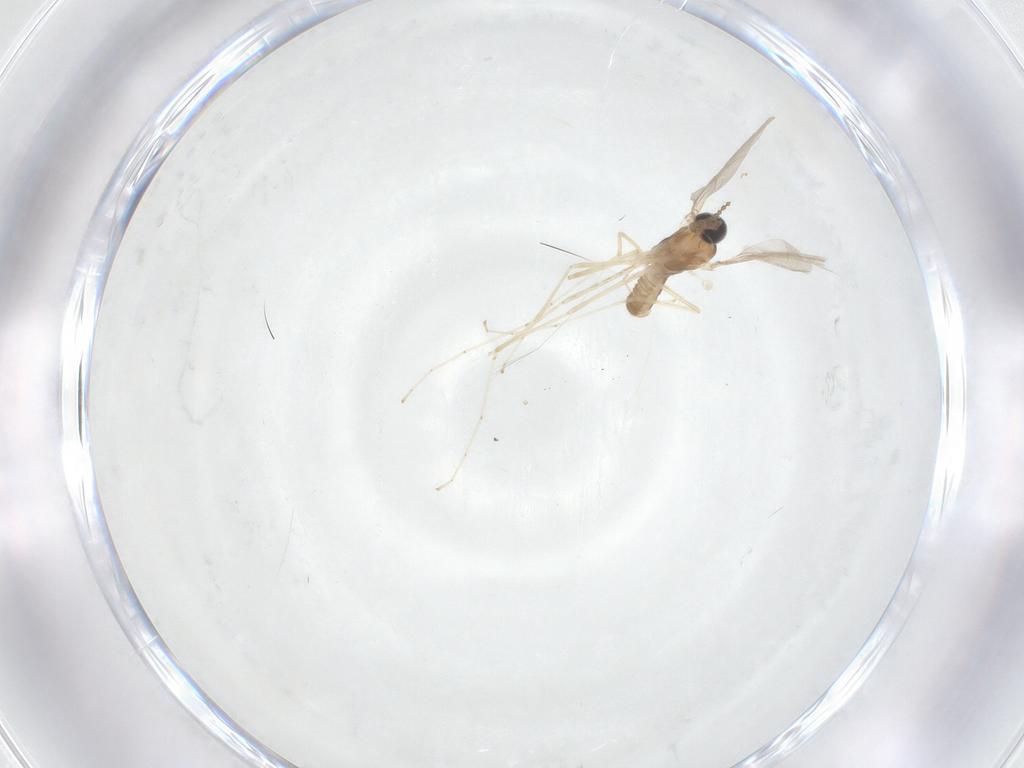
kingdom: Animalia
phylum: Arthropoda
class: Insecta
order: Diptera
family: Cecidomyiidae
